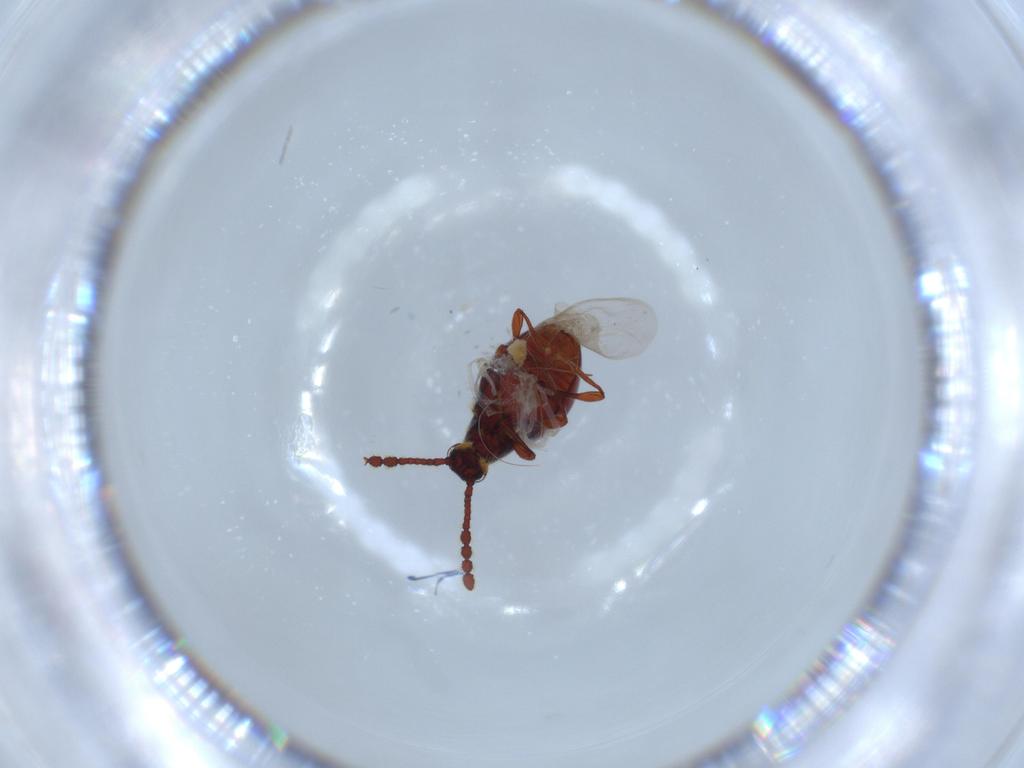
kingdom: Animalia
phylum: Arthropoda
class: Insecta
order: Coleoptera
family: Staphylinidae
